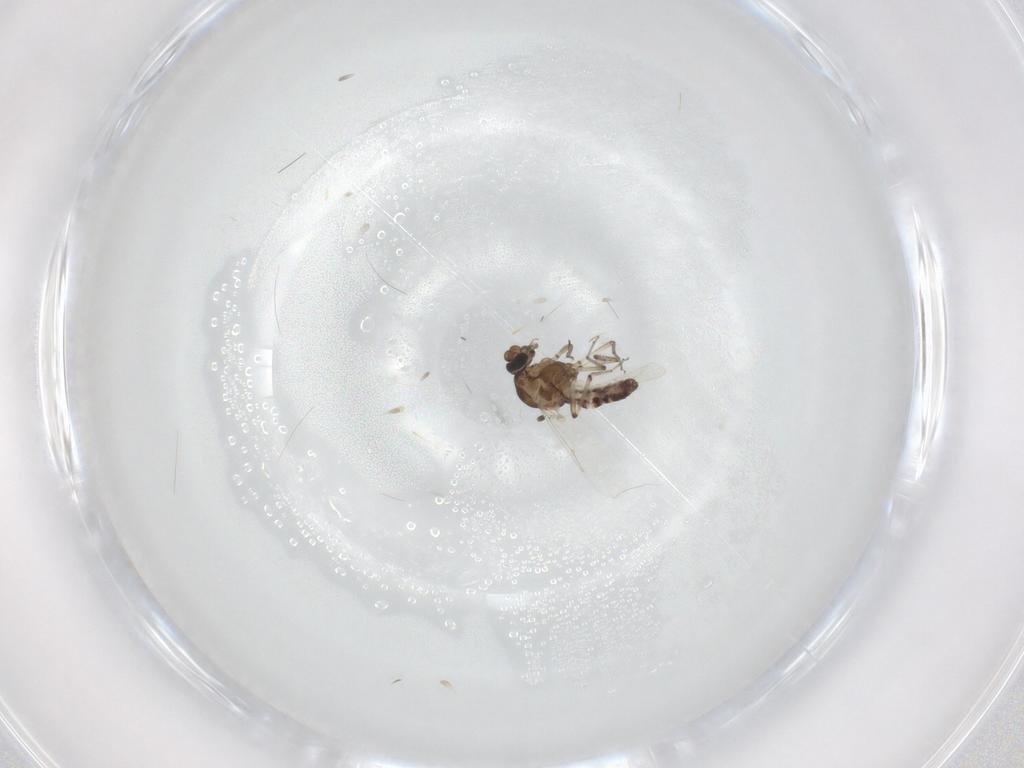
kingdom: Animalia
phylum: Arthropoda
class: Insecta
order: Diptera
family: Ceratopogonidae
